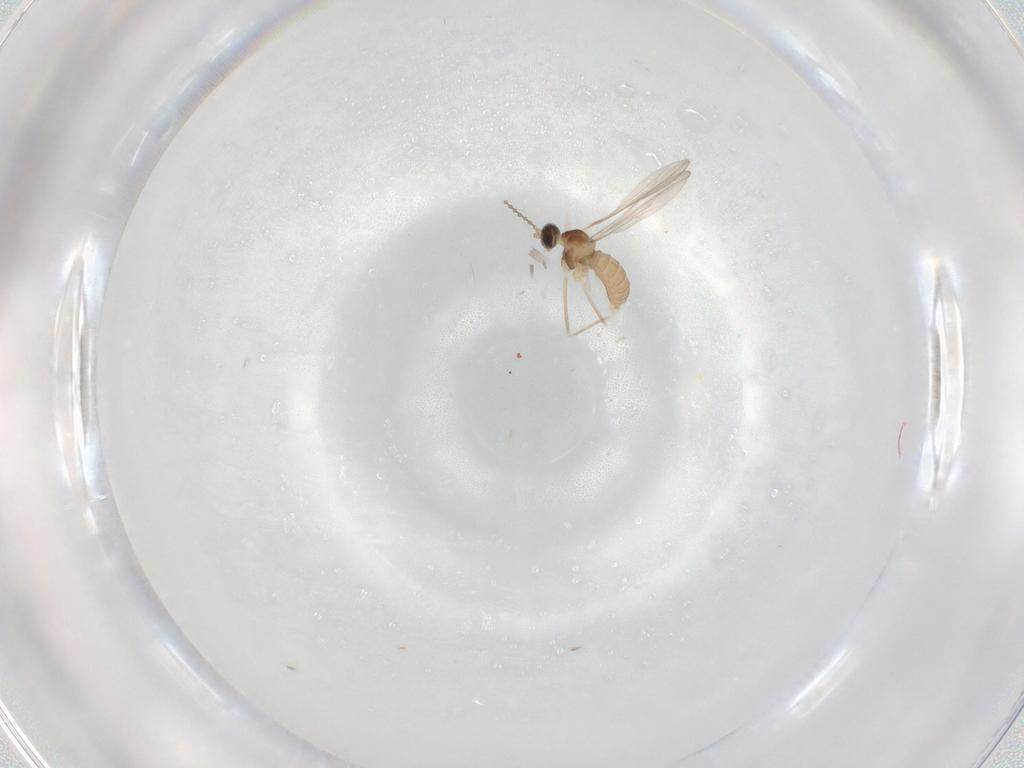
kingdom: Animalia
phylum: Arthropoda
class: Insecta
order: Diptera
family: Cecidomyiidae
